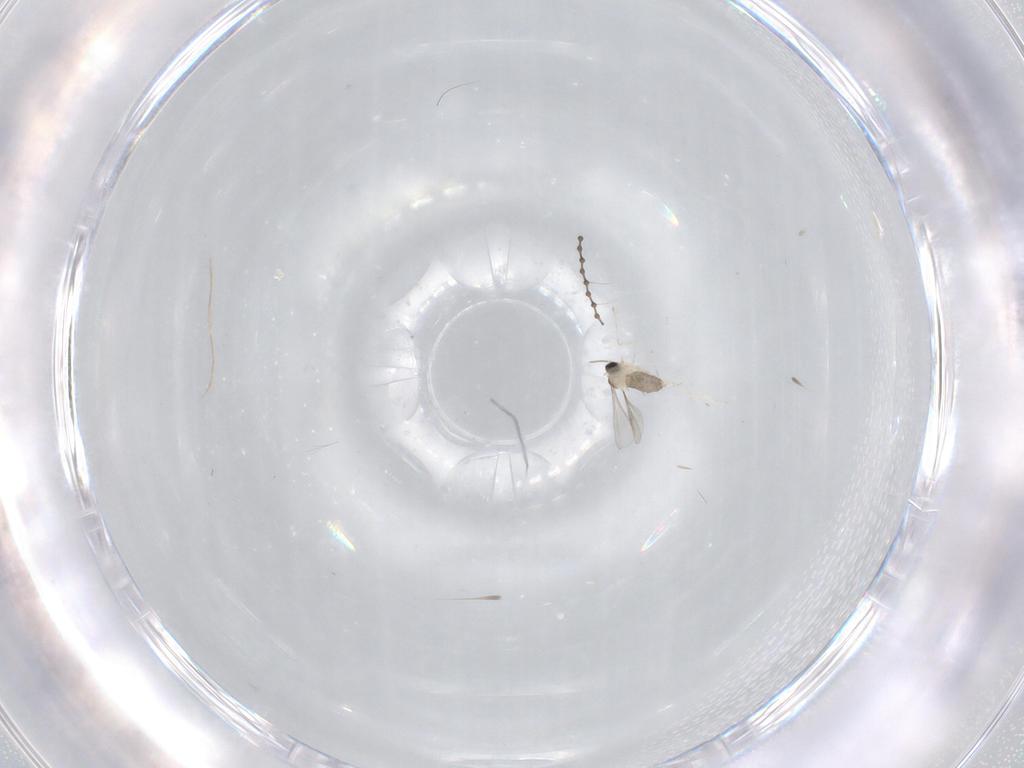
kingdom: Animalia
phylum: Arthropoda
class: Insecta
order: Diptera
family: Cecidomyiidae
